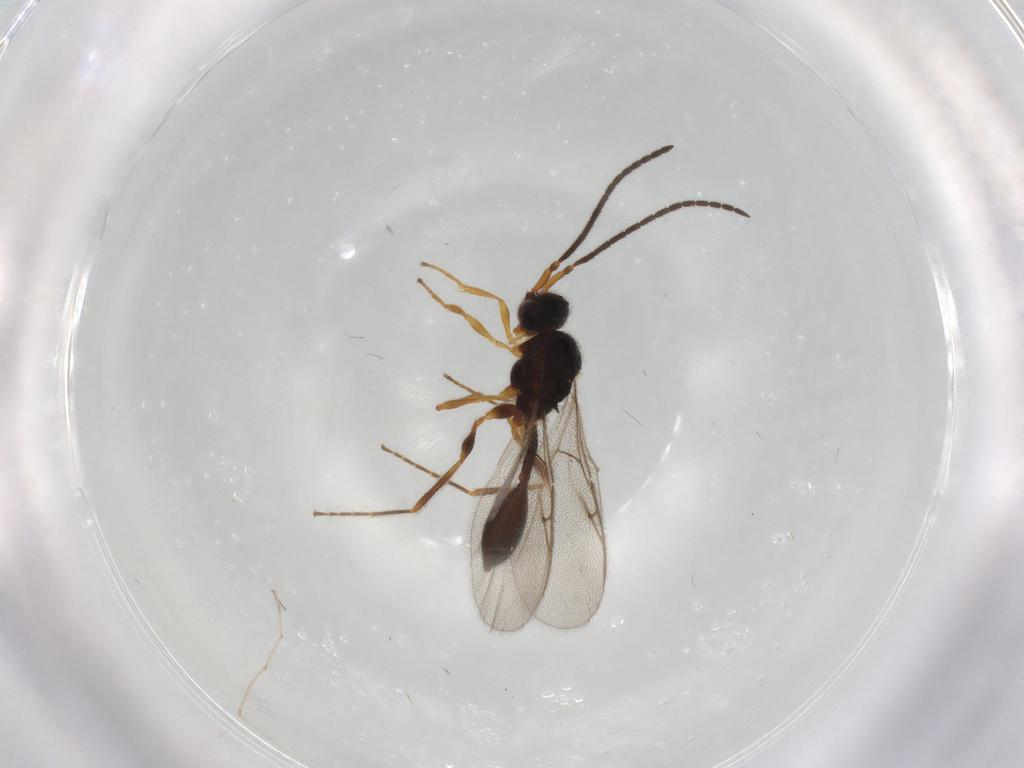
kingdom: Animalia
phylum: Arthropoda
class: Insecta
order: Hymenoptera
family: Diapriidae
